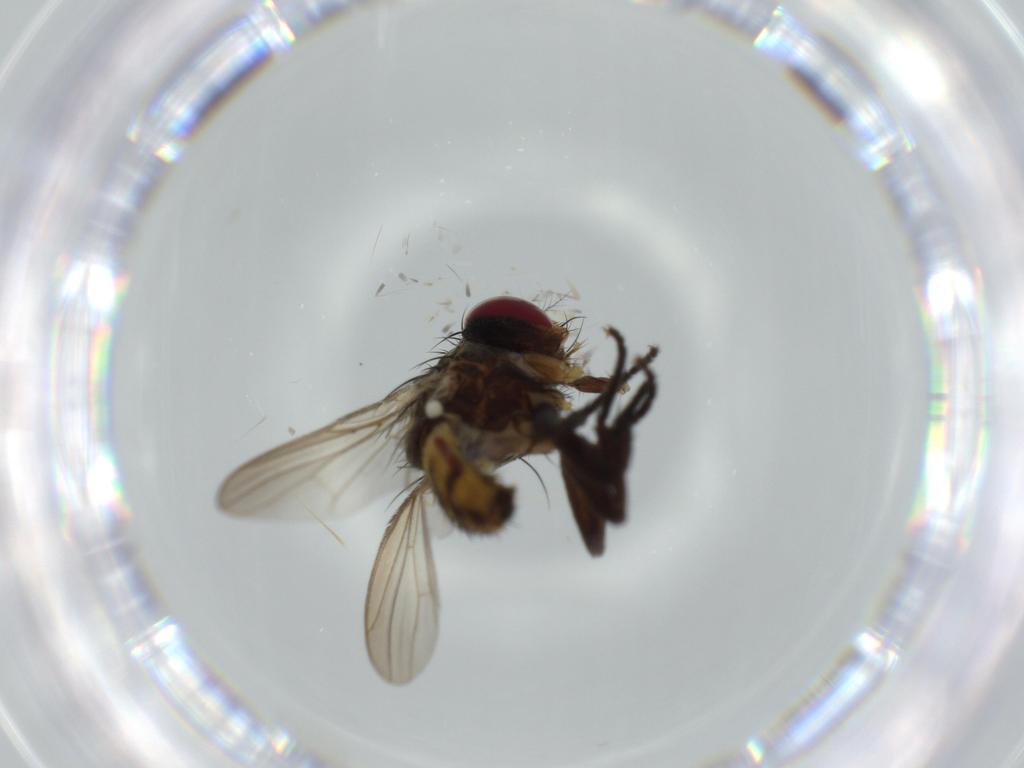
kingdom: Animalia
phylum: Arthropoda
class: Insecta
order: Diptera
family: Anthomyiidae
